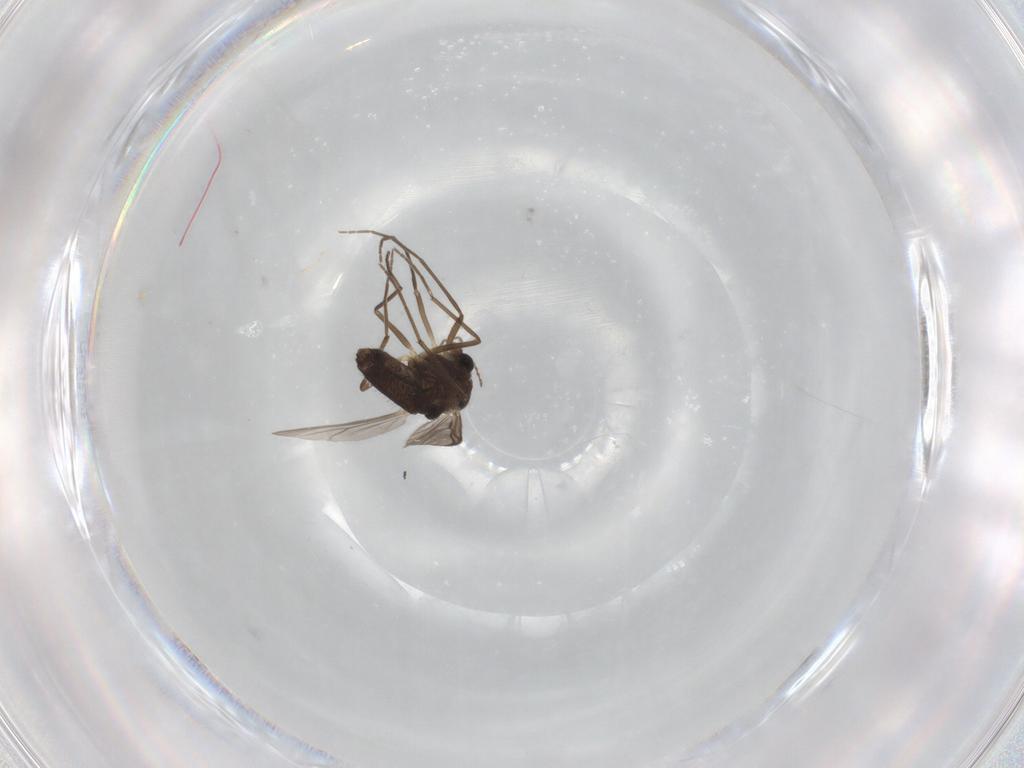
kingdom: Animalia
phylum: Arthropoda
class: Insecta
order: Diptera
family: Chironomidae
